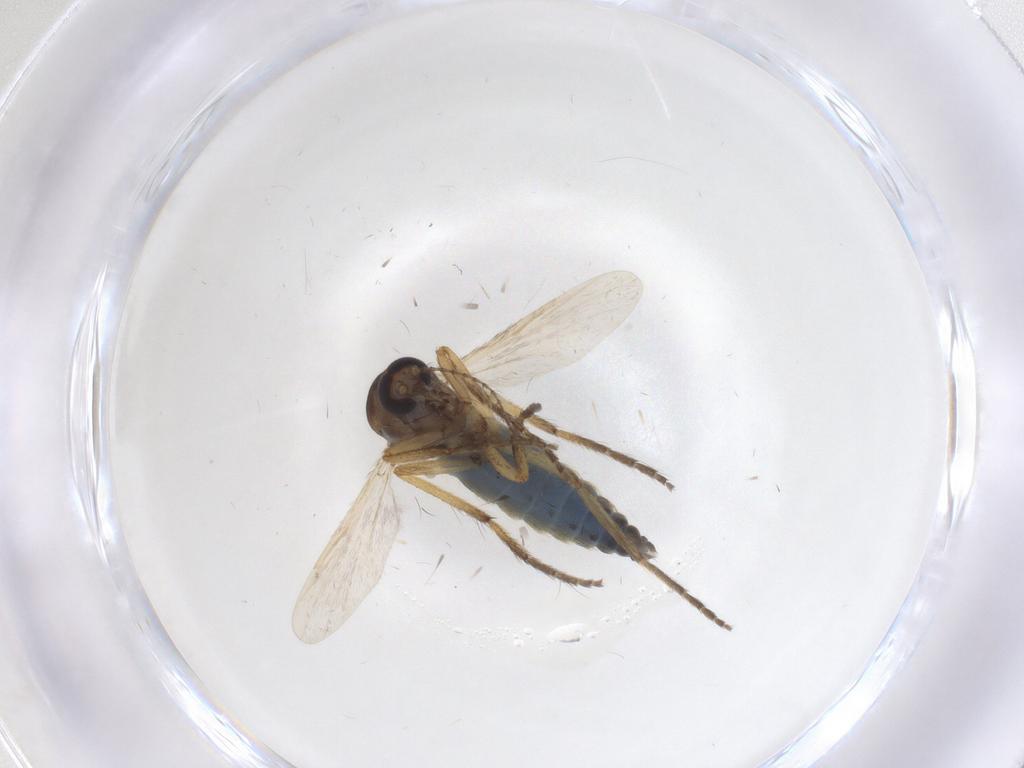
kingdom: Animalia
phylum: Arthropoda
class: Insecta
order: Diptera
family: Ceratopogonidae
